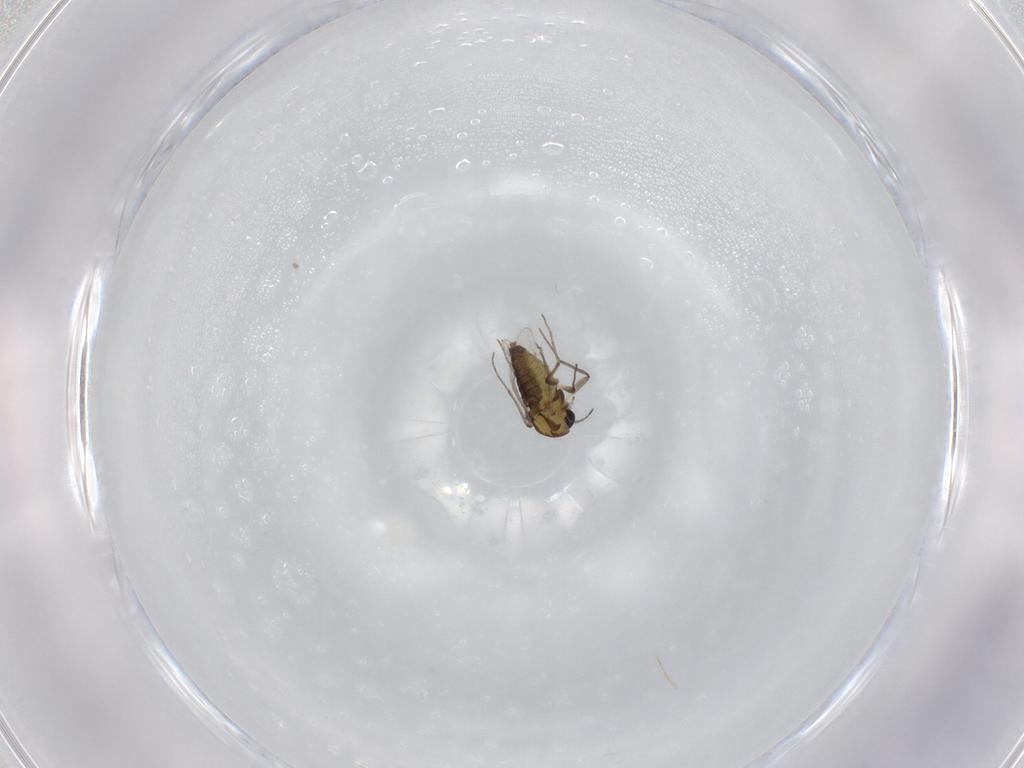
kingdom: Animalia
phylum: Arthropoda
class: Insecta
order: Diptera
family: Chironomidae
